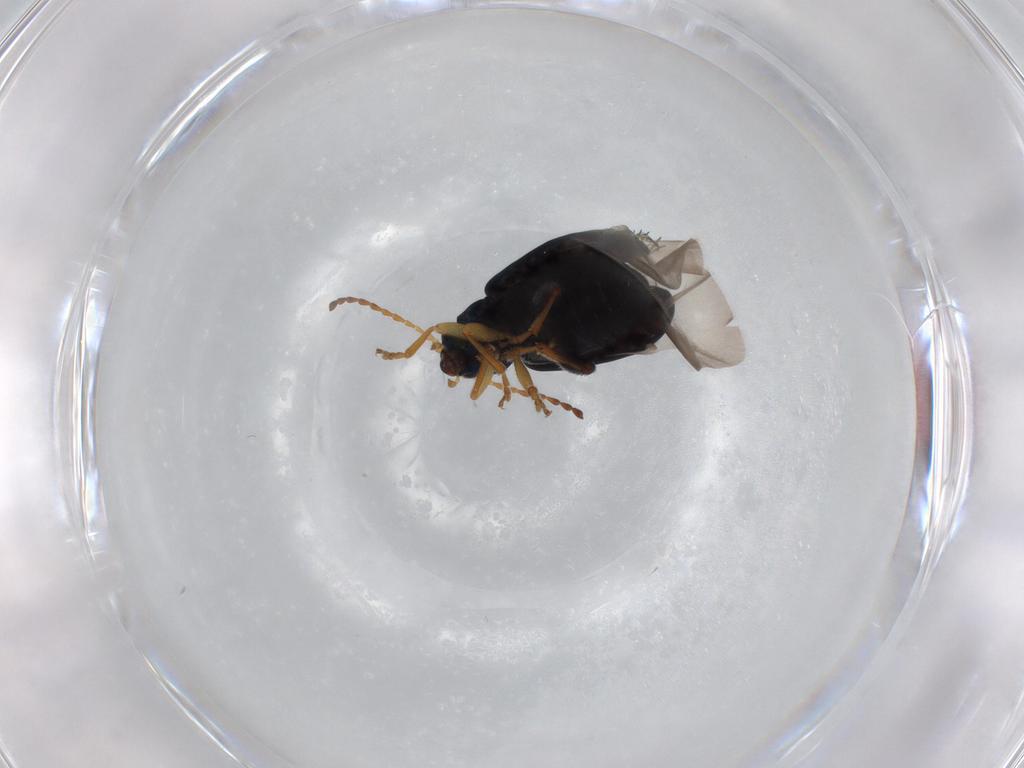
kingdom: Animalia
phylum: Arthropoda
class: Insecta
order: Coleoptera
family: Chrysomelidae
